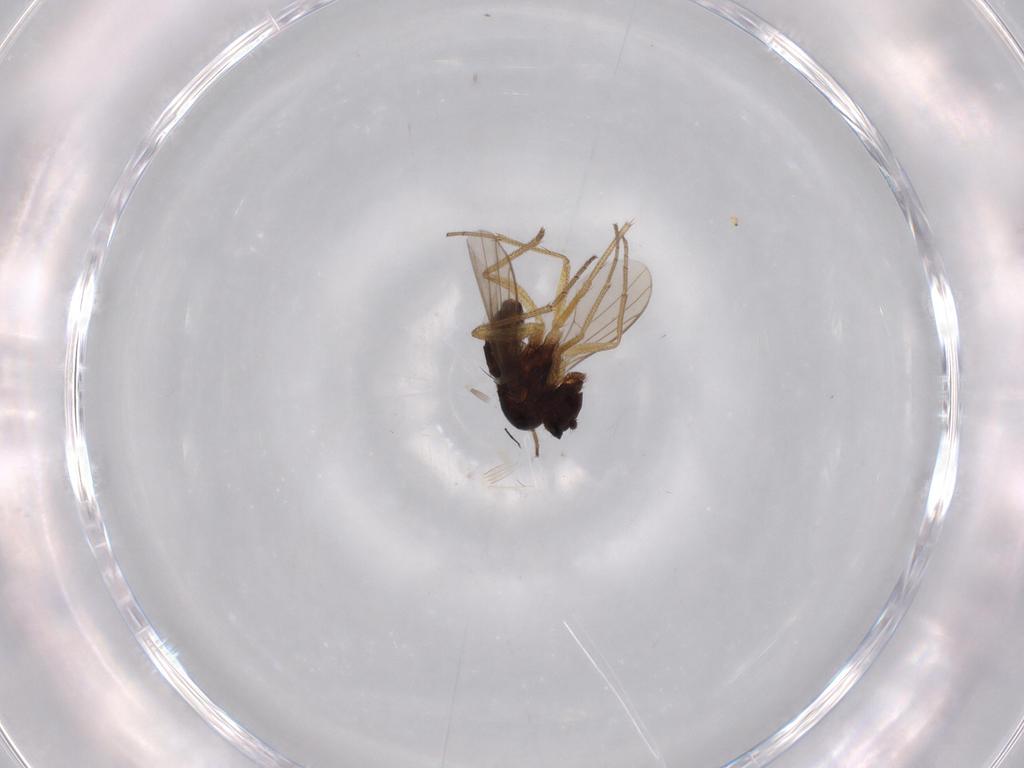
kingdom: Animalia
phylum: Arthropoda
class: Insecta
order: Diptera
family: Dolichopodidae
